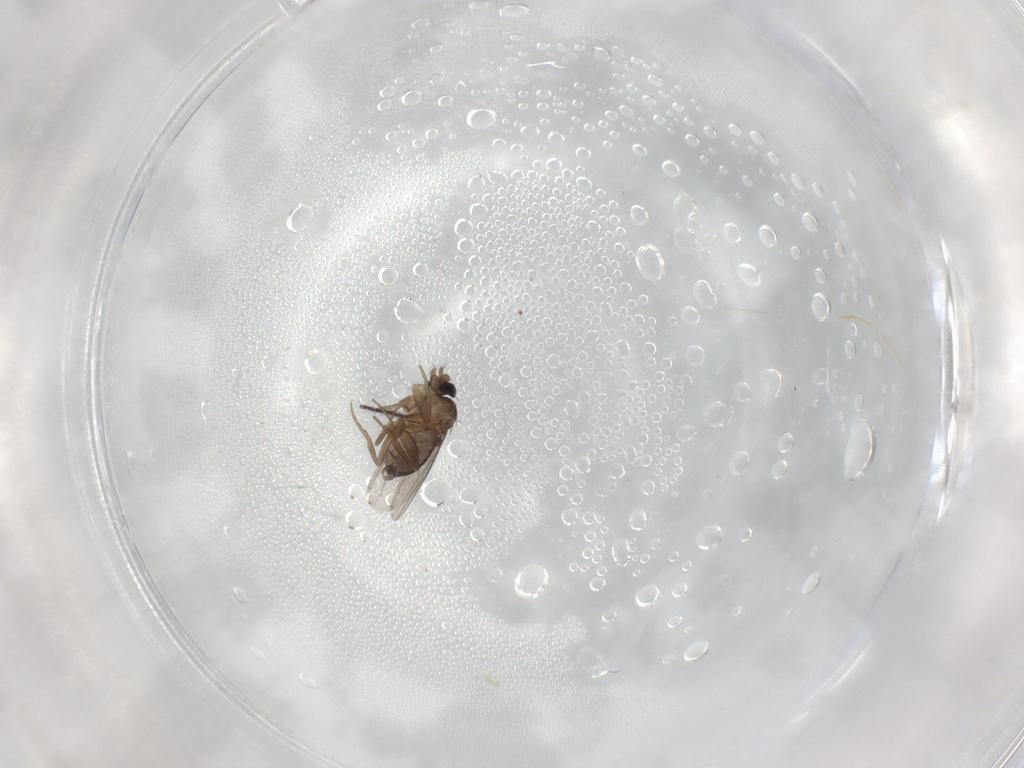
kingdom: Animalia
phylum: Arthropoda
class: Insecta
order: Diptera
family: Phoridae
